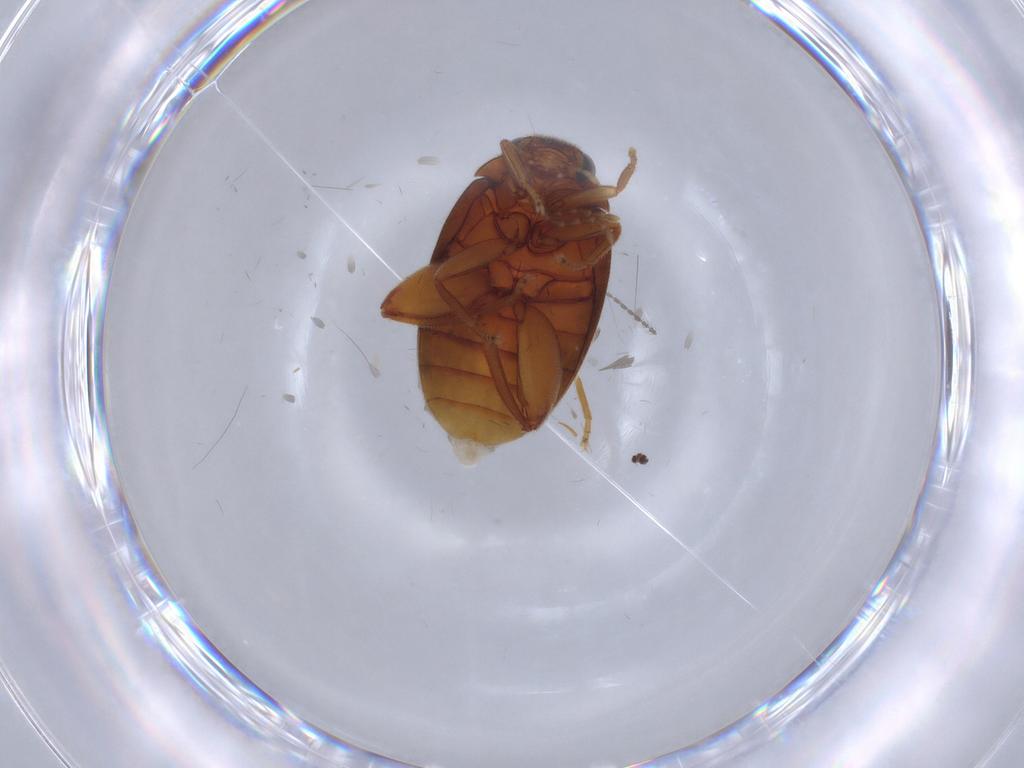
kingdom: Animalia
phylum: Arthropoda
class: Insecta
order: Coleoptera
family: Scirtidae
